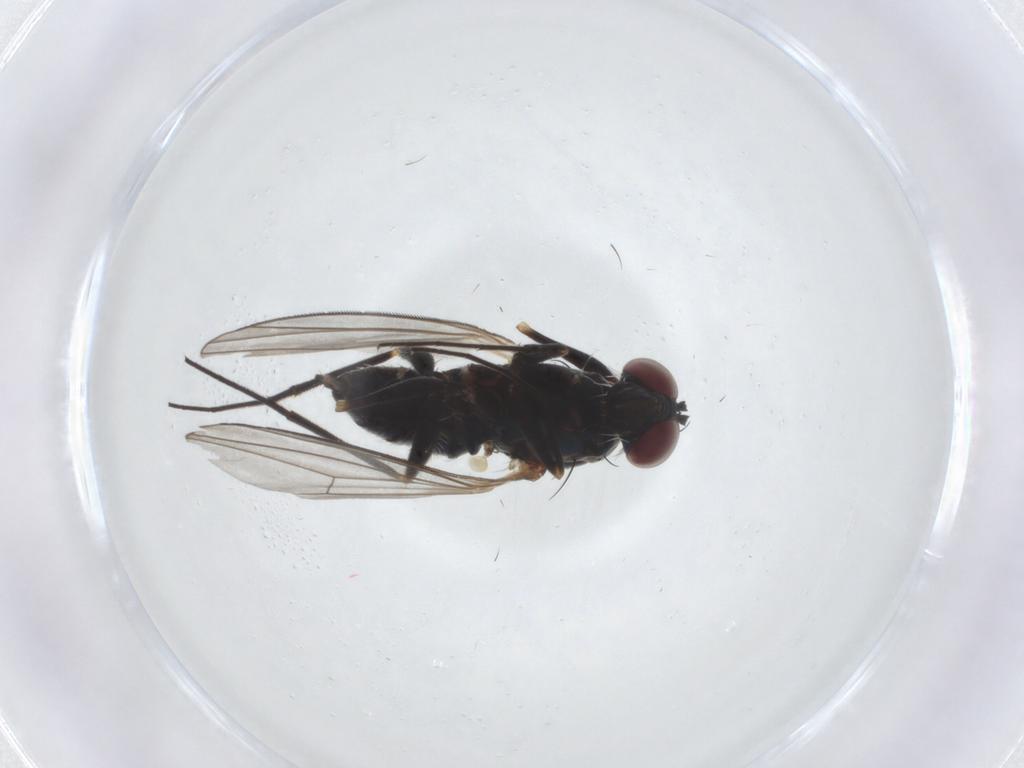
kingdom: Animalia
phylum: Arthropoda
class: Insecta
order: Diptera
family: Dolichopodidae
